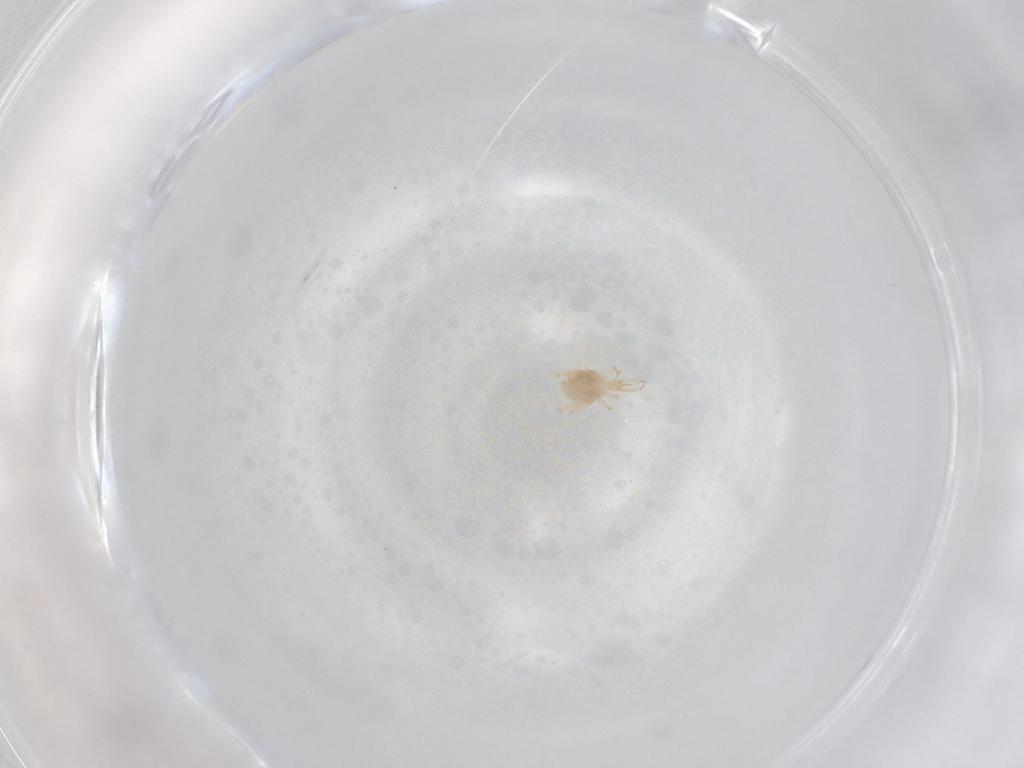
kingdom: Animalia
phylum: Arthropoda
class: Arachnida
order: Trombidiformes
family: Cunaxidae
